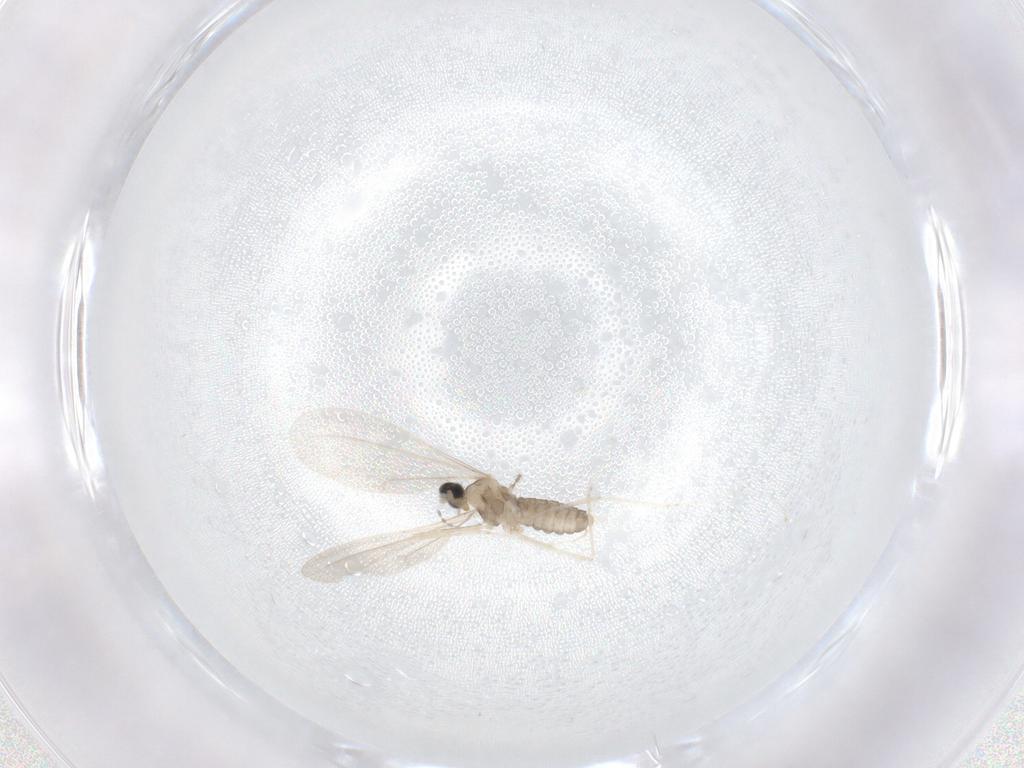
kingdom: Animalia
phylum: Arthropoda
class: Insecta
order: Diptera
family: Cecidomyiidae
